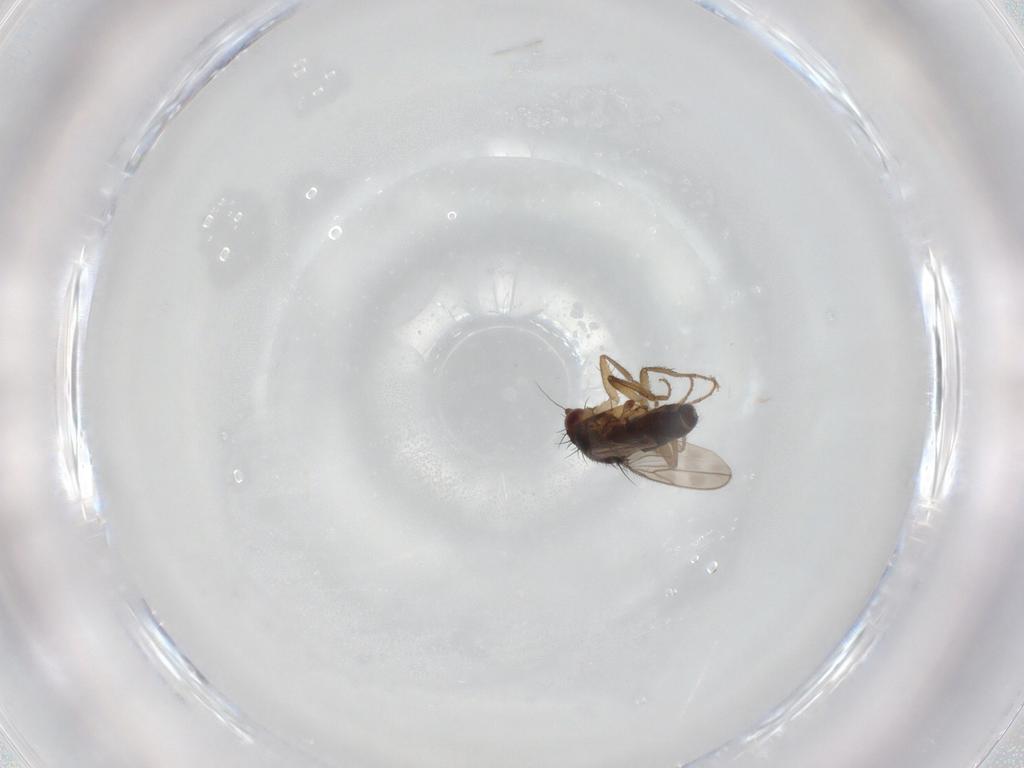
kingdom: Animalia
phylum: Arthropoda
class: Insecta
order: Diptera
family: Sphaeroceridae
